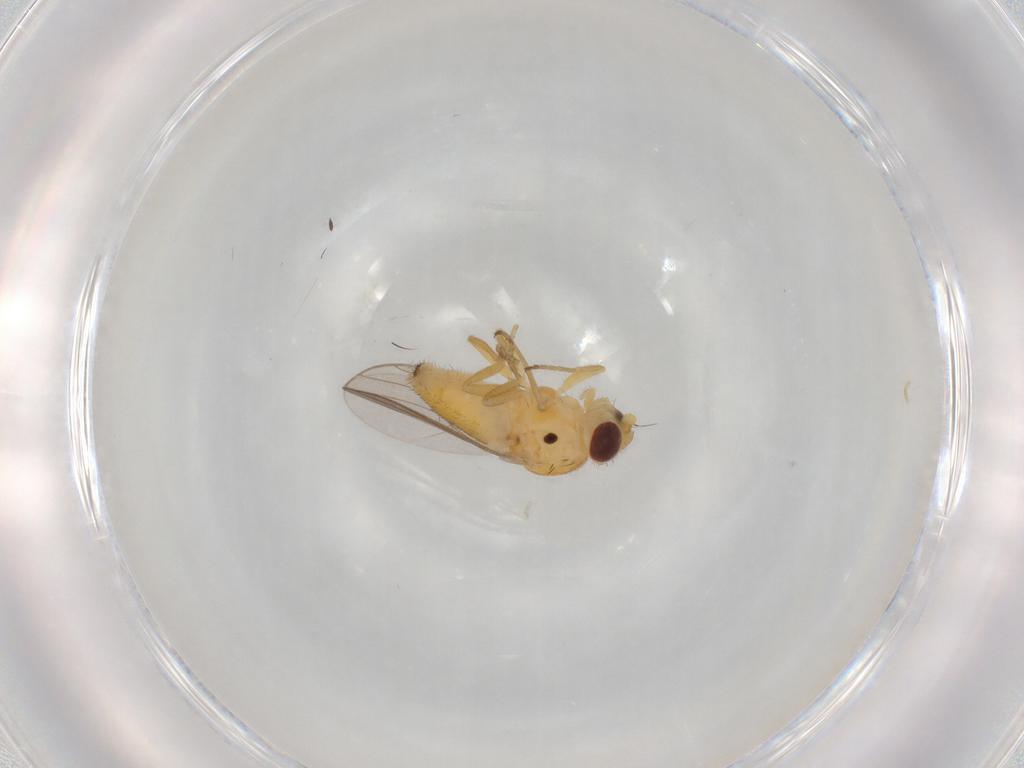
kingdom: Animalia
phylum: Arthropoda
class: Insecta
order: Diptera
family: Chloropidae
